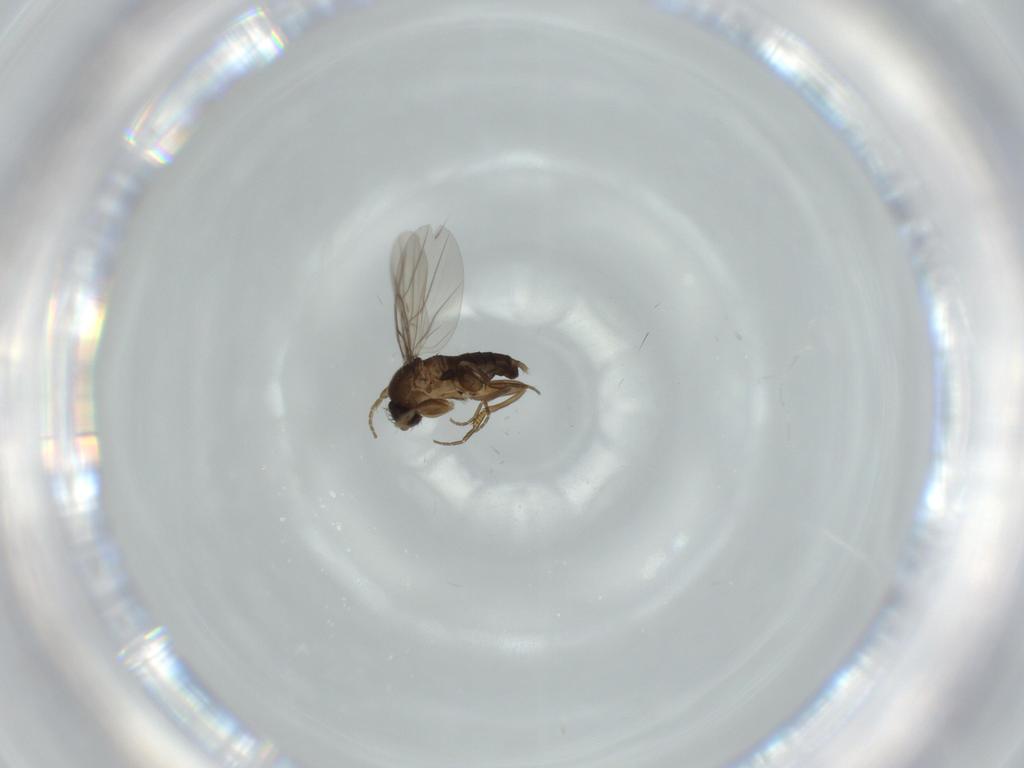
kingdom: Animalia
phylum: Arthropoda
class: Insecta
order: Diptera
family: Phoridae
